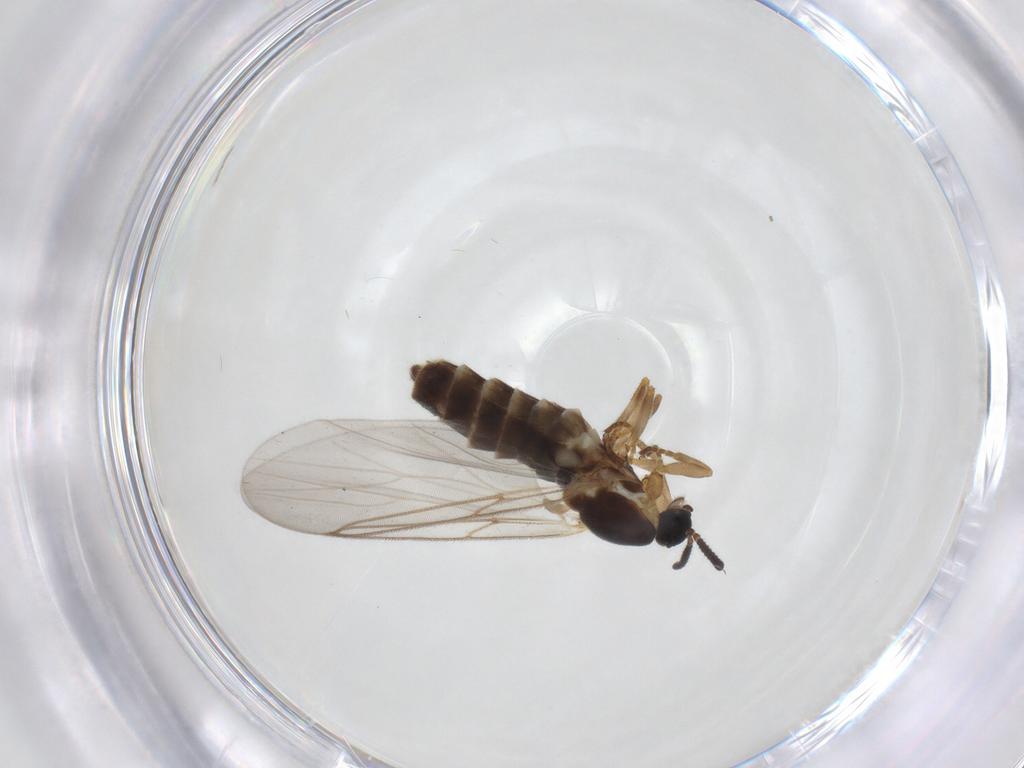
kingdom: Animalia
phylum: Arthropoda
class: Insecta
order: Diptera
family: Scatopsidae
